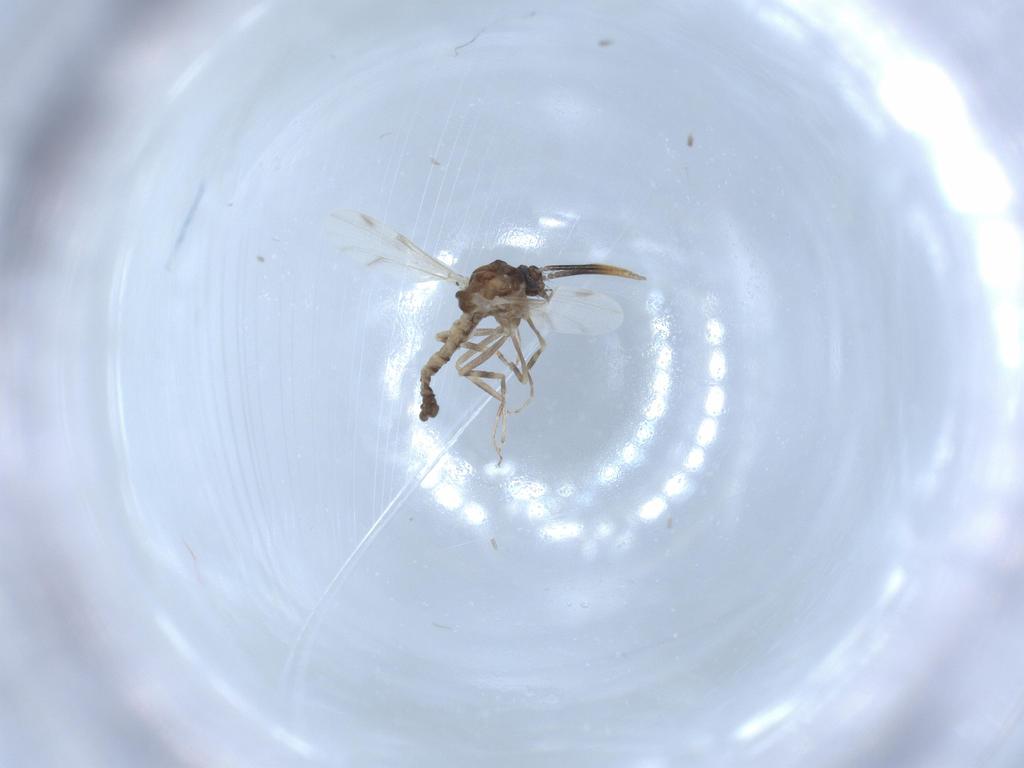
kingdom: Animalia
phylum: Arthropoda
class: Insecta
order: Diptera
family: Ceratopogonidae
